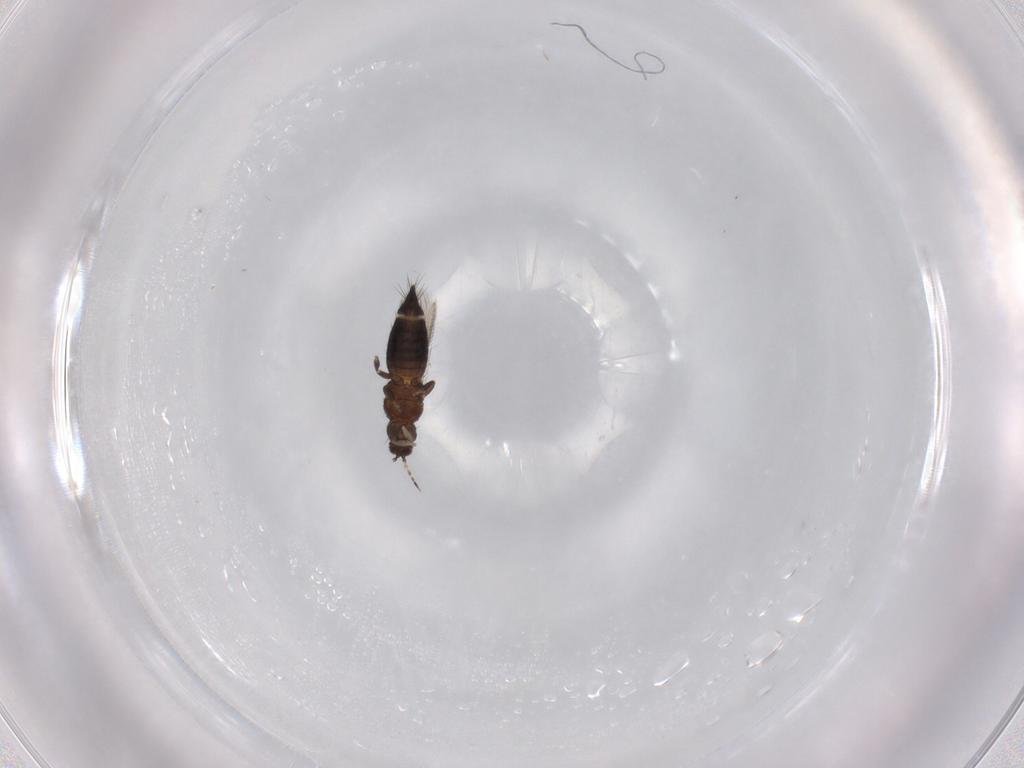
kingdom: Animalia
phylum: Arthropoda
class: Insecta
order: Thysanoptera
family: Thripidae
